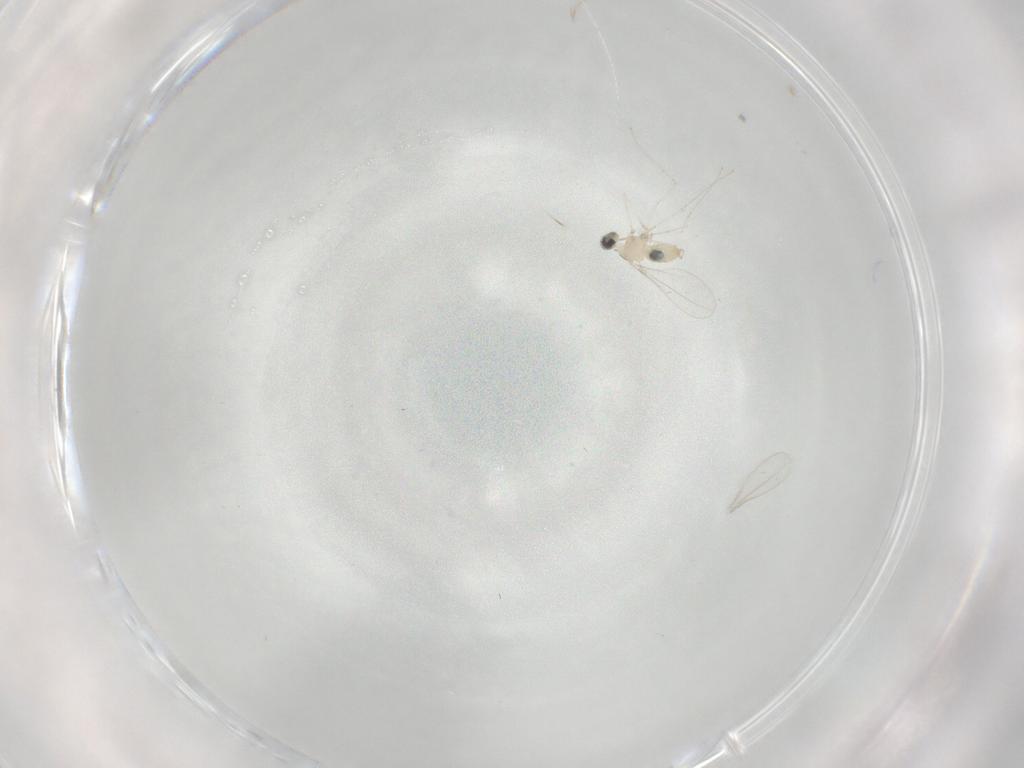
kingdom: Animalia
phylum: Arthropoda
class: Insecta
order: Diptera
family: Cecidomyiidae
